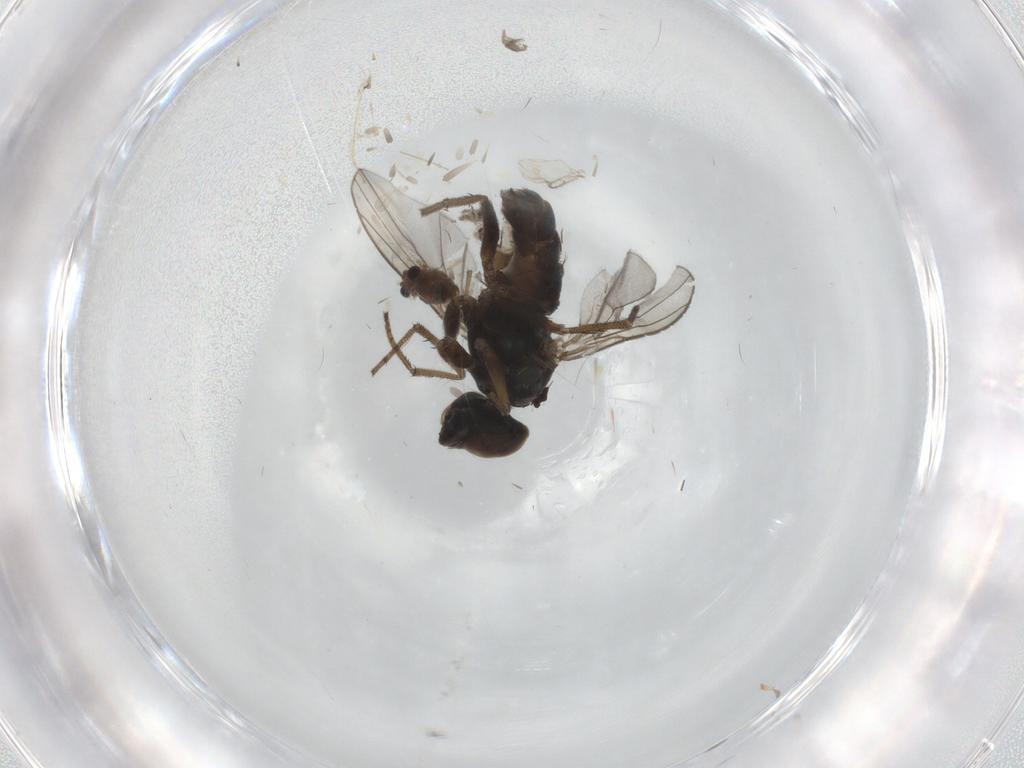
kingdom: Animalia
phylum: Arthropoda
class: Insecta
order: Diptera
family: Chironomidae
